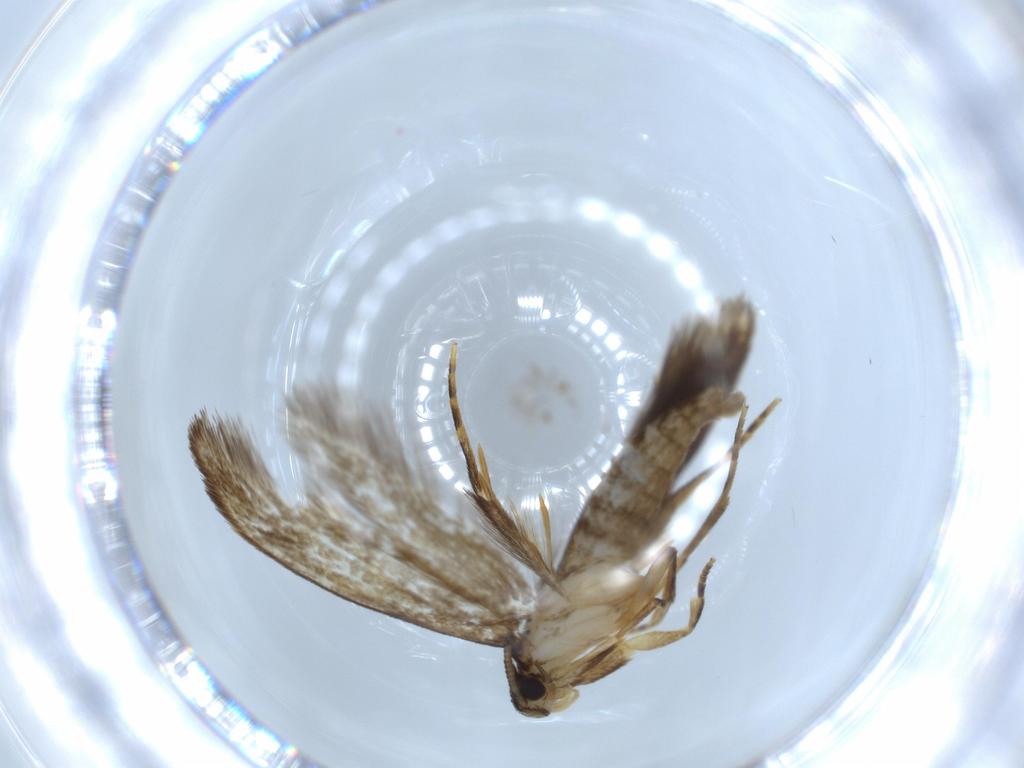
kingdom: Animalia
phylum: Arthropoda
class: Insecta
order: Lepidoptera
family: Tineidae
